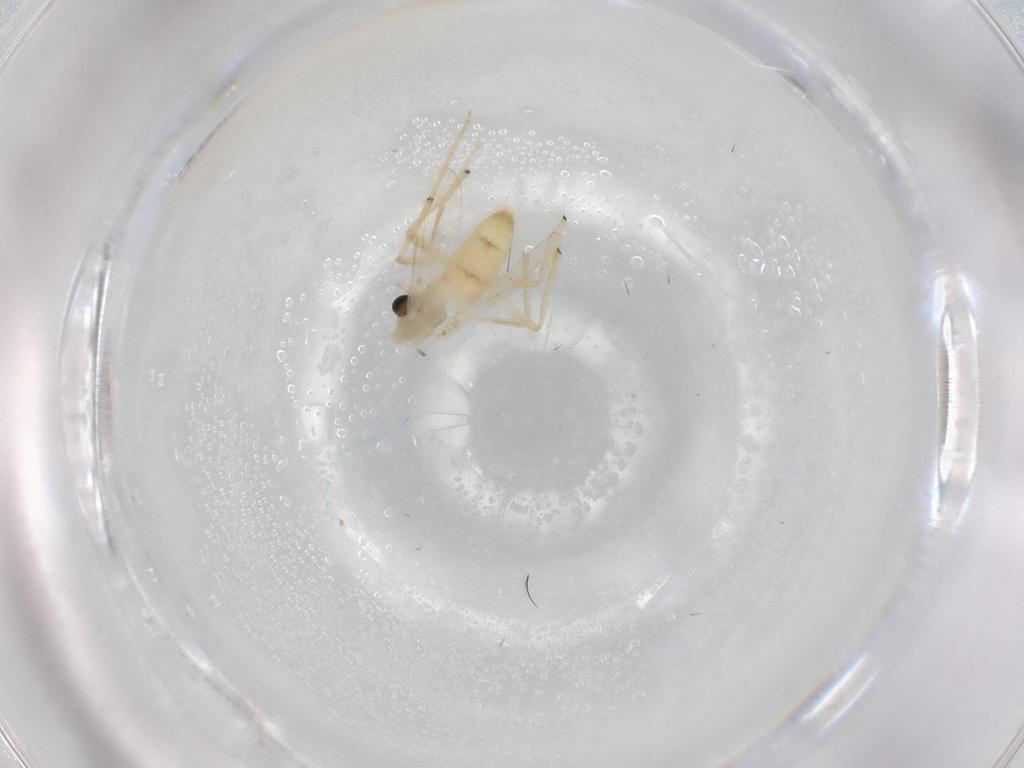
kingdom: Animalia
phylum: Arthropoda
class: Insecta
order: Diptera
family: Chironomidae
